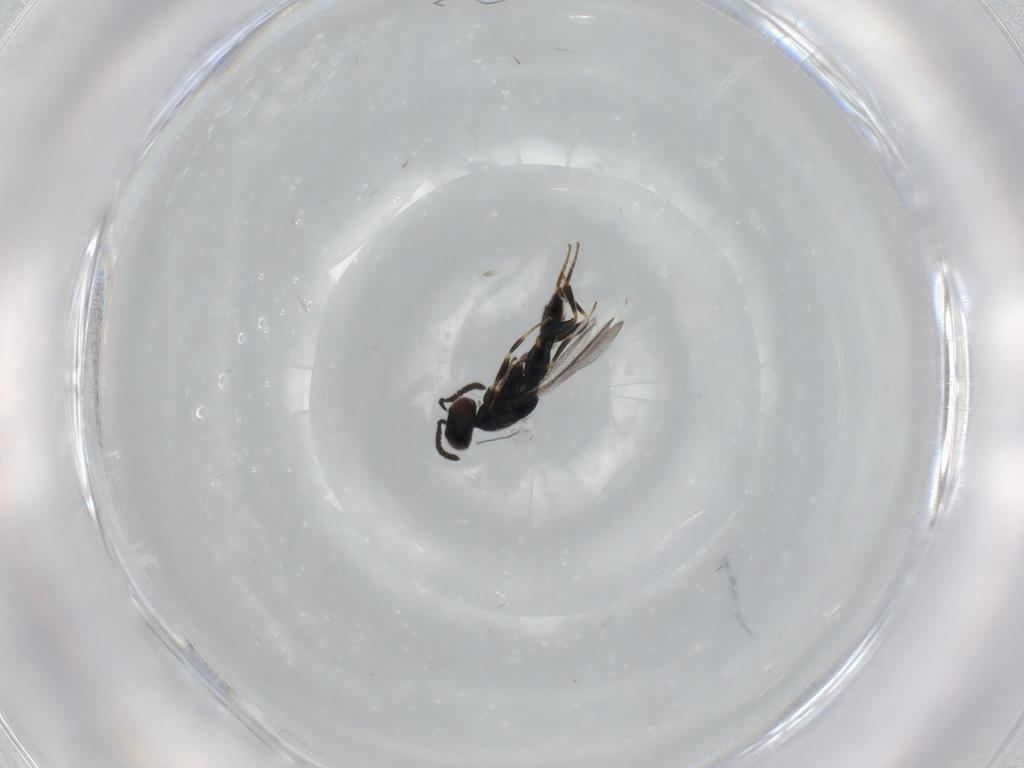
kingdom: Animalia
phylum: Arthropoda
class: Insecta
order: Hymenoptera
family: Cleonyminae
